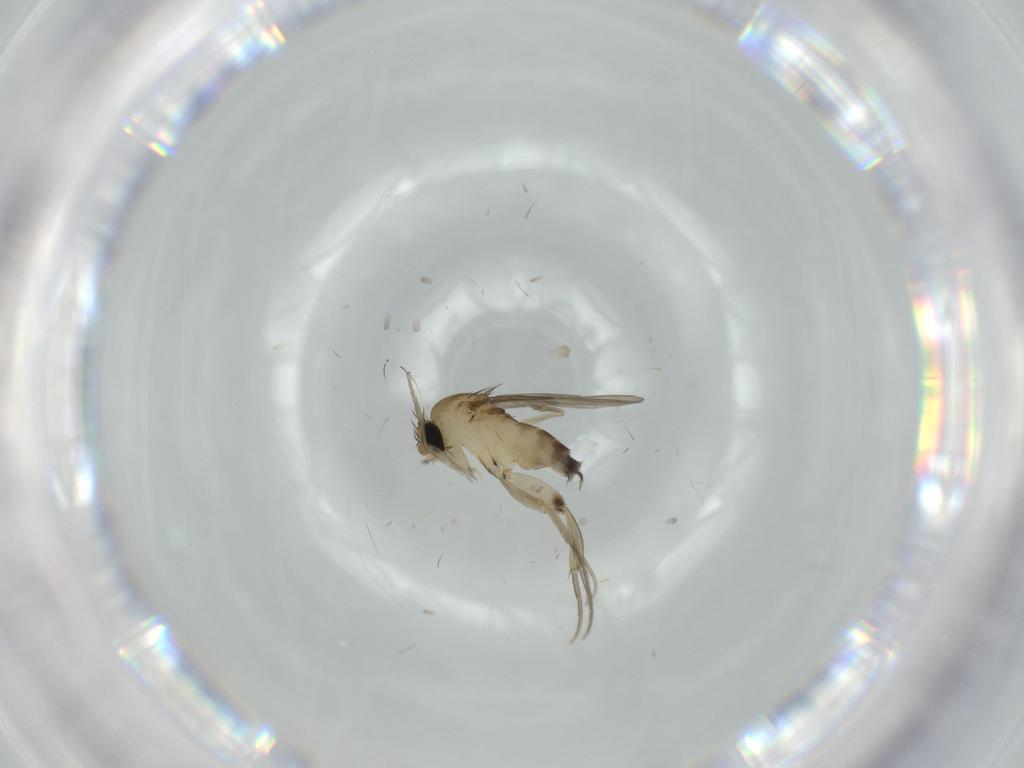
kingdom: Animalia
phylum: Arthropoda
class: Insecta
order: Diptera
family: Phoridae
